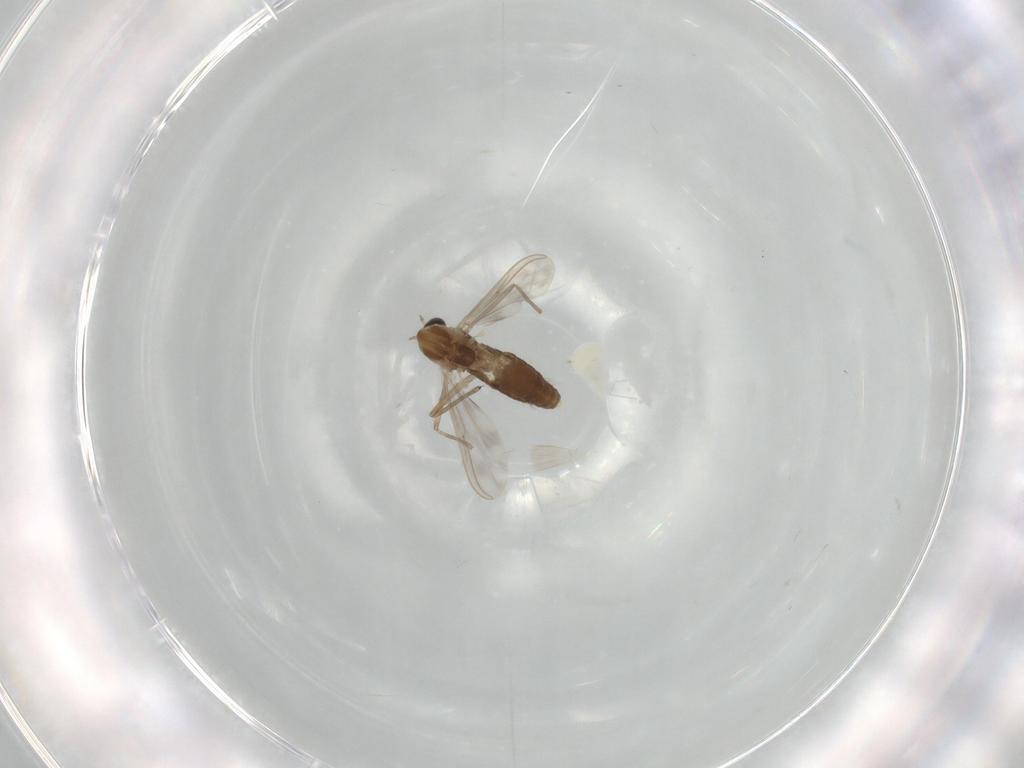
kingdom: Animalia
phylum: Arthropoda
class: Insecta
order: Diptera
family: Chironomidae
